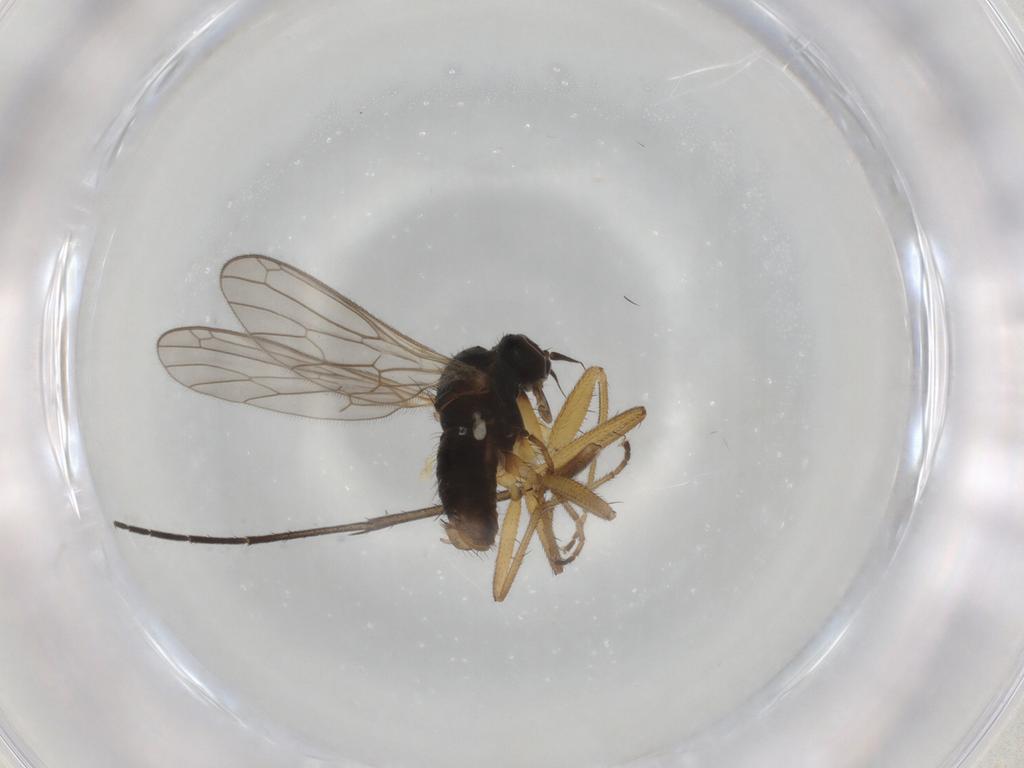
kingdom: Animalia
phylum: Arthropoda
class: Insecta
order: Diptera
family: Empididae
